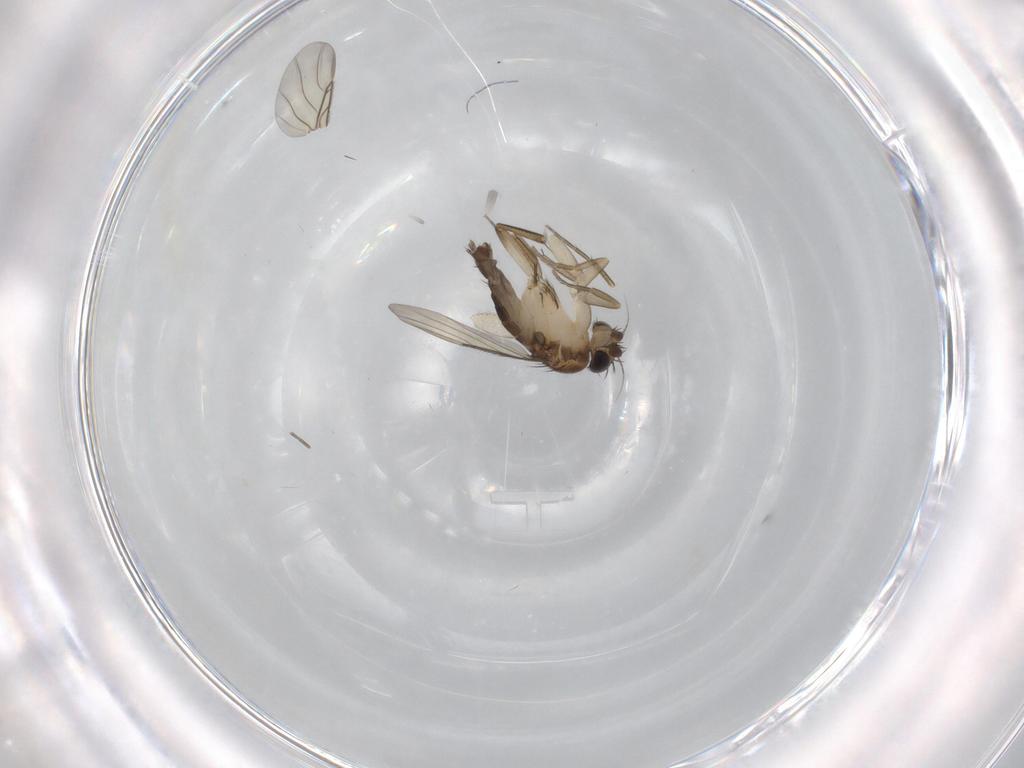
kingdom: Animalia
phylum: Arthropoda
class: Insecta
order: Diptera
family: Phoridae
